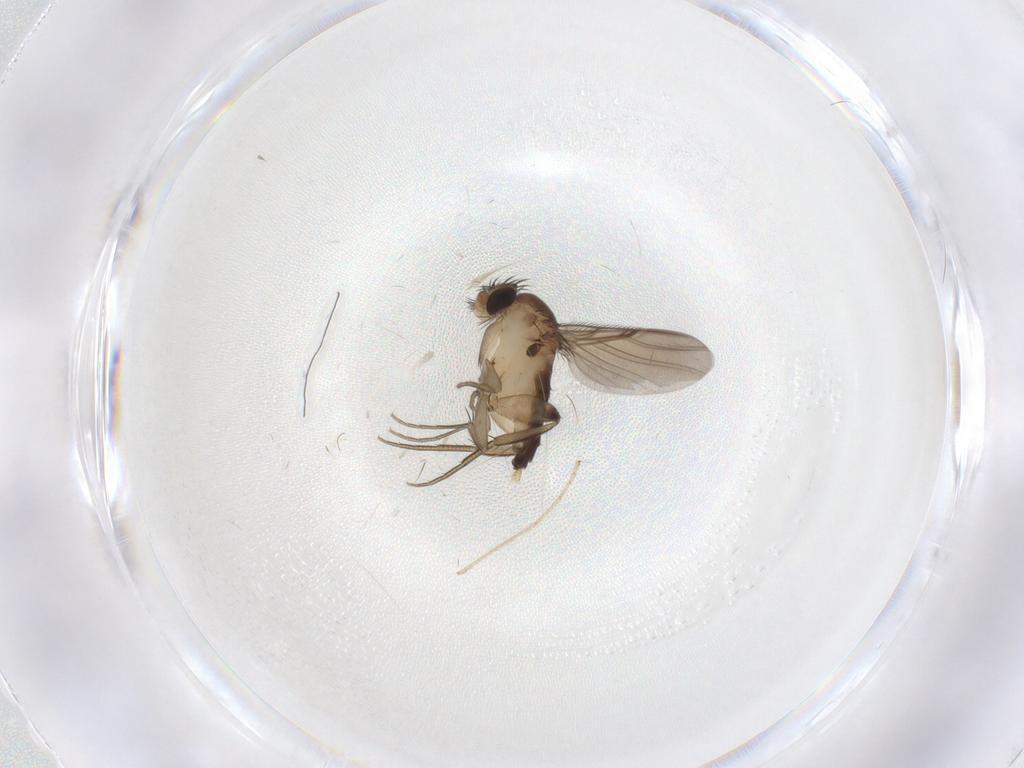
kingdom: Animalia
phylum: Arthropoda
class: Insecta
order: Diptera
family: Phoridae
